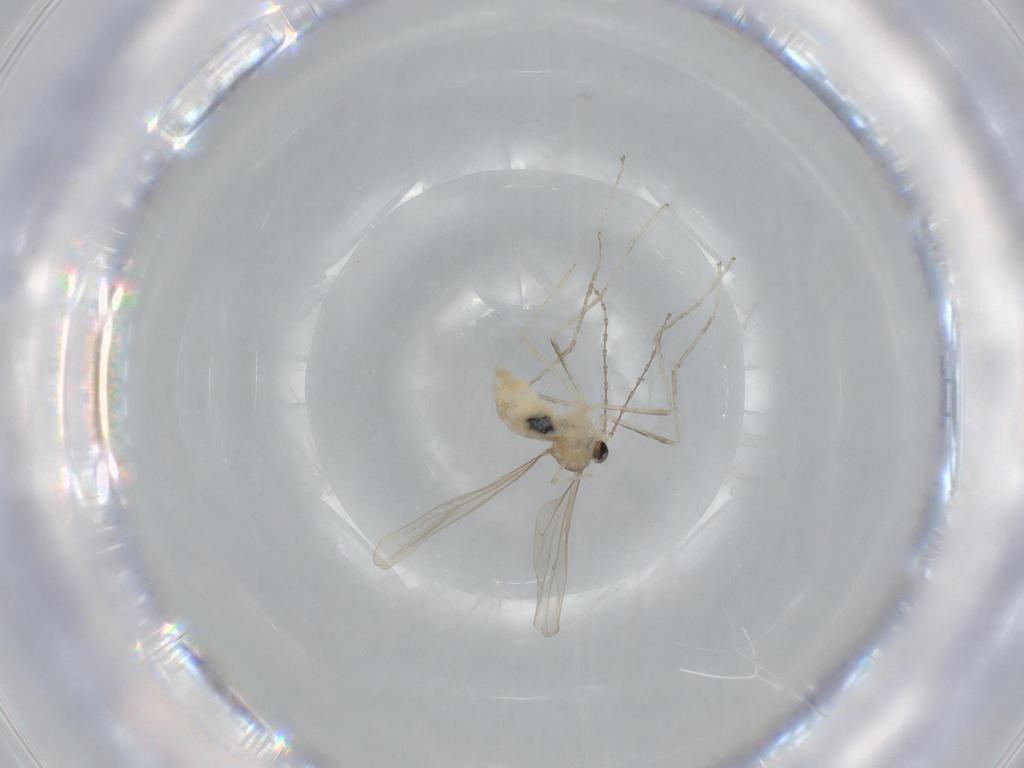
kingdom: Animalia
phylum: Arthropoda
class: Insecta
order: Diptera
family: Cecidomyiidae
